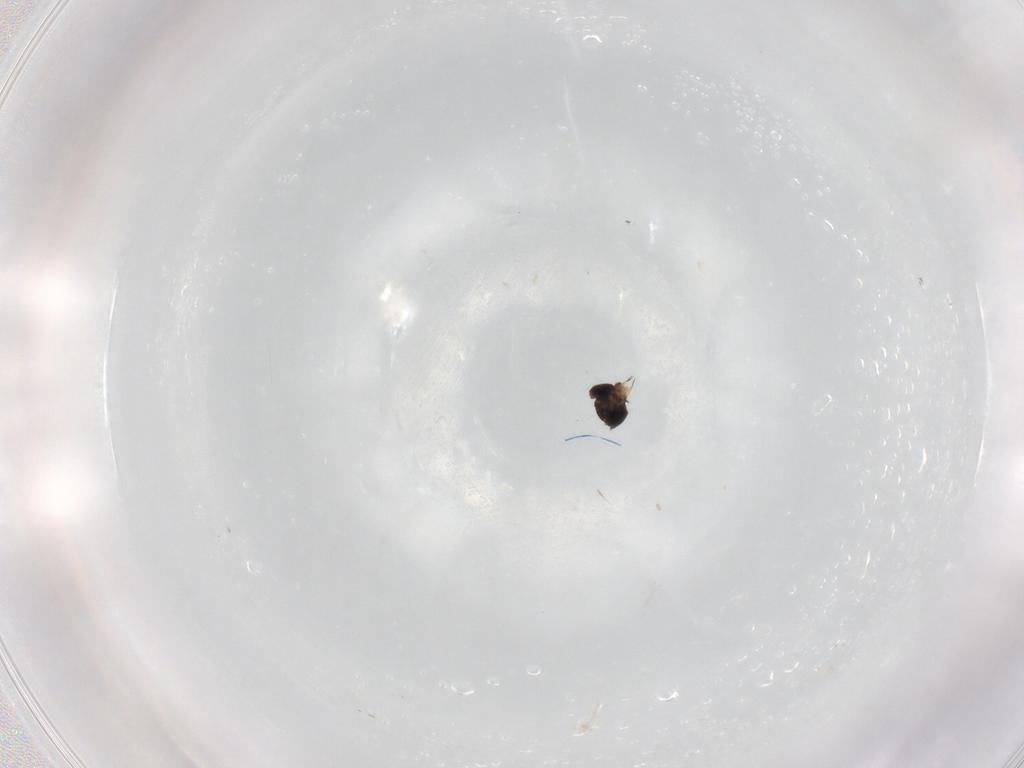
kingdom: Animalia
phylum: Arthropoda
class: Insecta
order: Diptera
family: Phoridae
